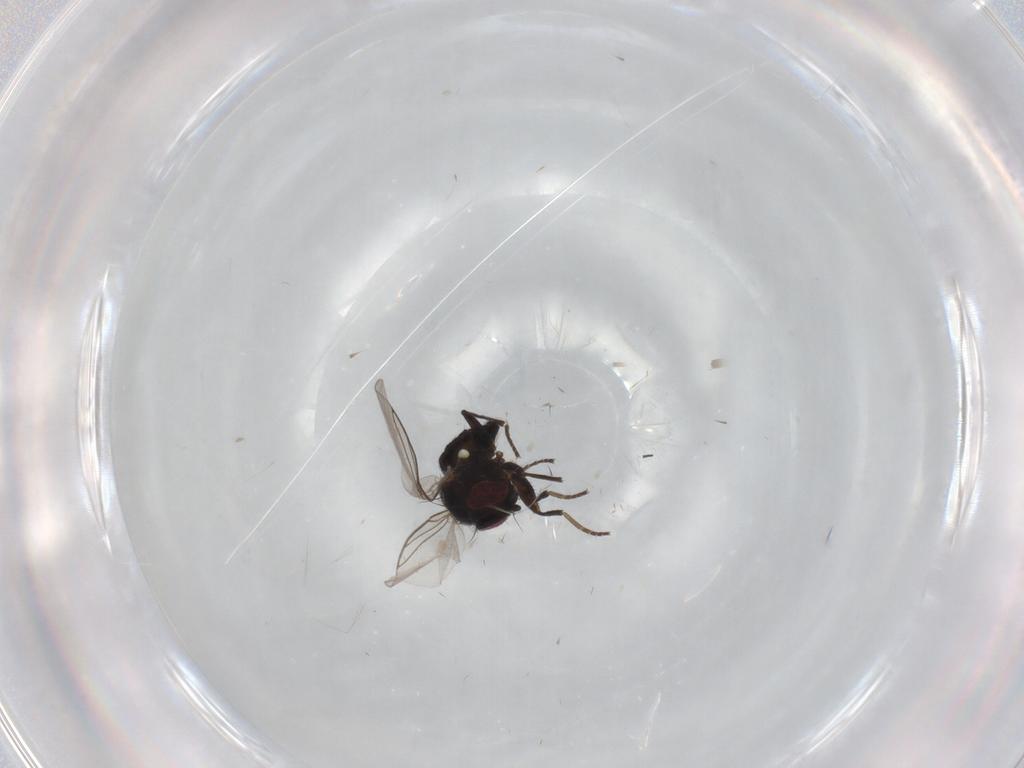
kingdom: Animalia
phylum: Arthropoda
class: Insecta
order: Diptera
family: Agromyzidae
